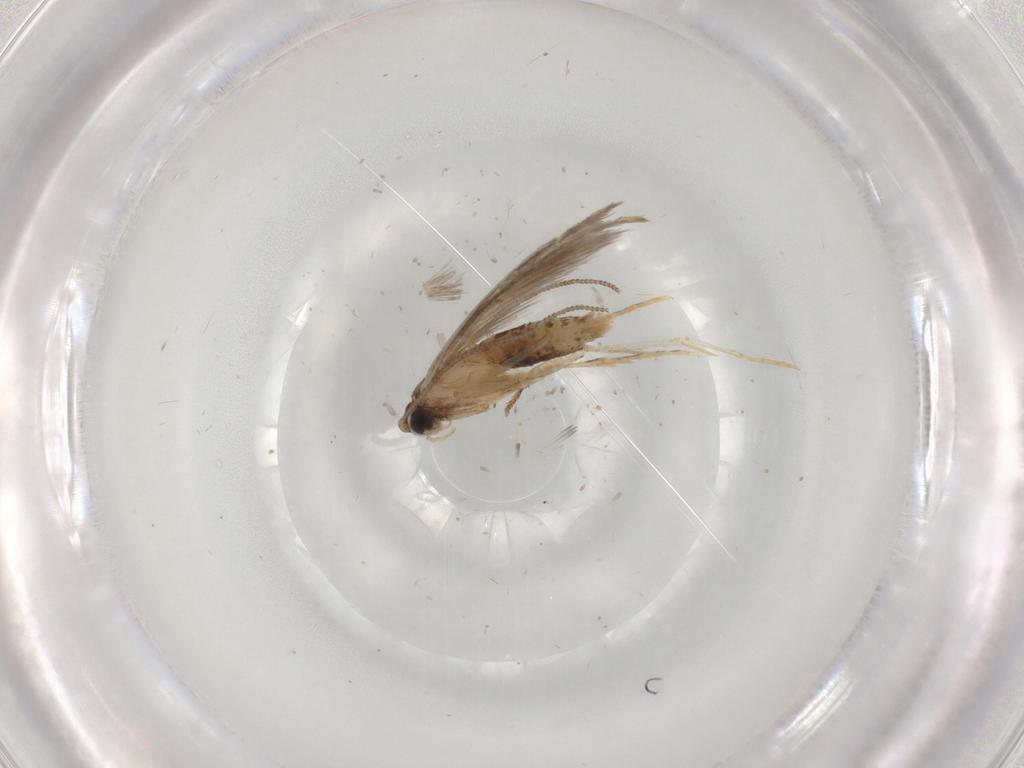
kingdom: Animalia
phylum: Arthropoda
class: Insecta
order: Lepidoptera
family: Tineidae
